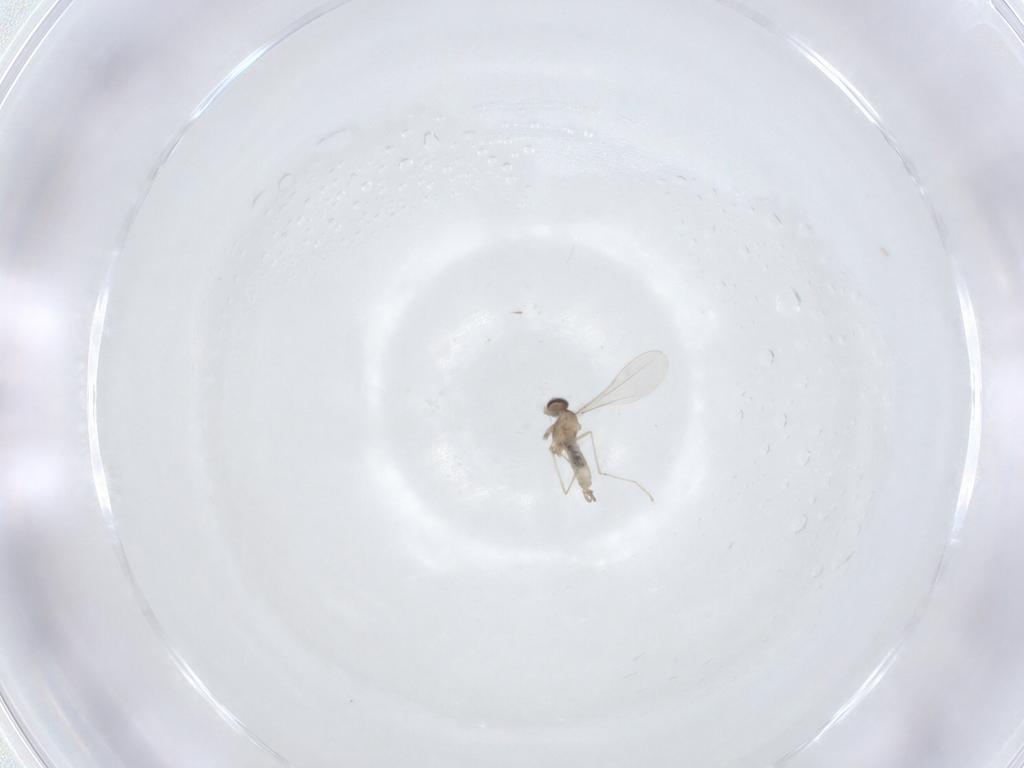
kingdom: Animalia
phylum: Arthropoda
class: Insecta
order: Diptera
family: Cecidomyiidae
